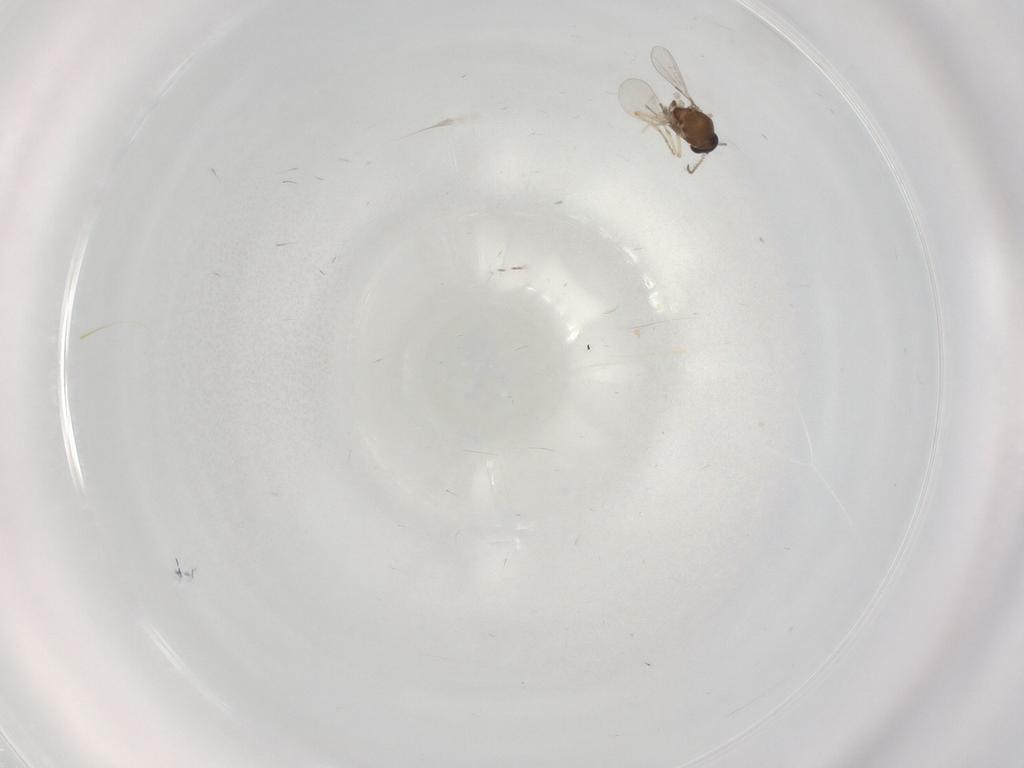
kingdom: Animalia
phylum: Arthropoda
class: Insecta
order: Diptera
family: Ceratopogonidae
